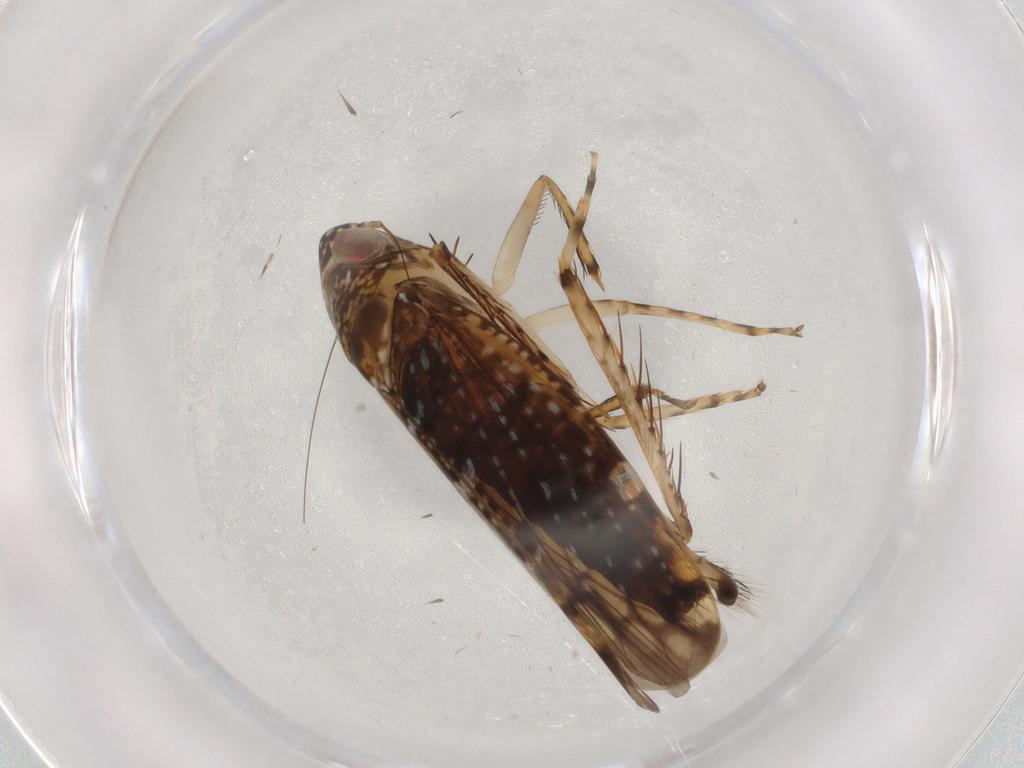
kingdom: Animalia
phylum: Arthropoda
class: Insecta
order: Hemiptera
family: Cicadellidae
